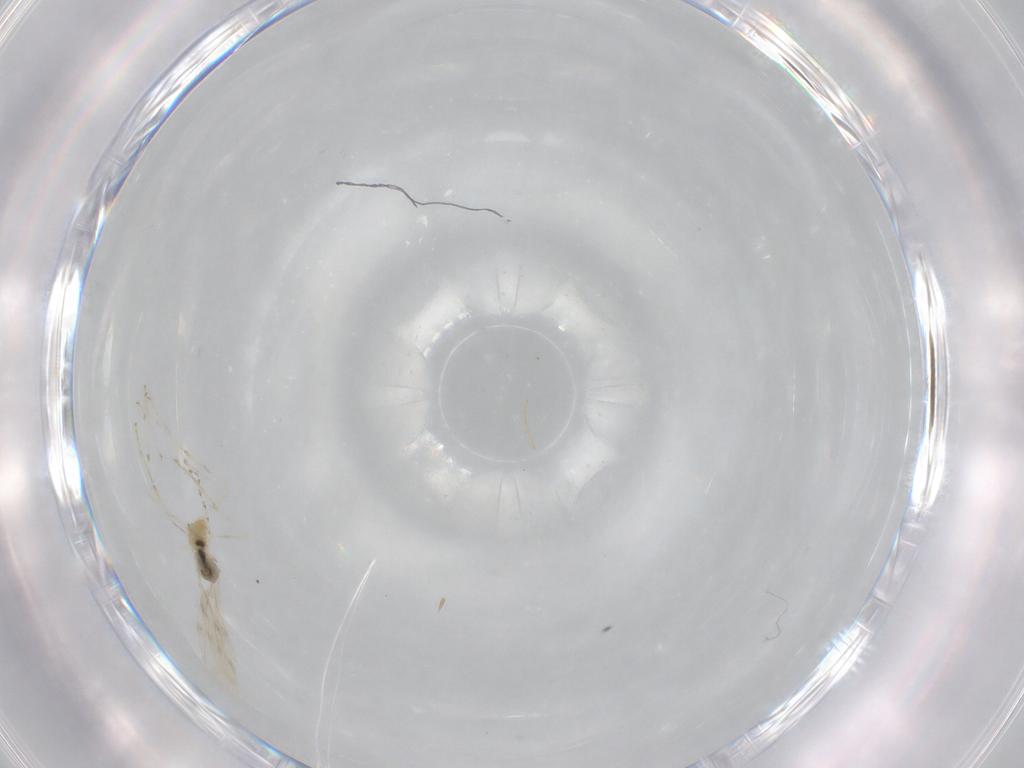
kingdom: Animalia
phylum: Arthropoda
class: Insecta
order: Diptera
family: Cecidomyiidae
